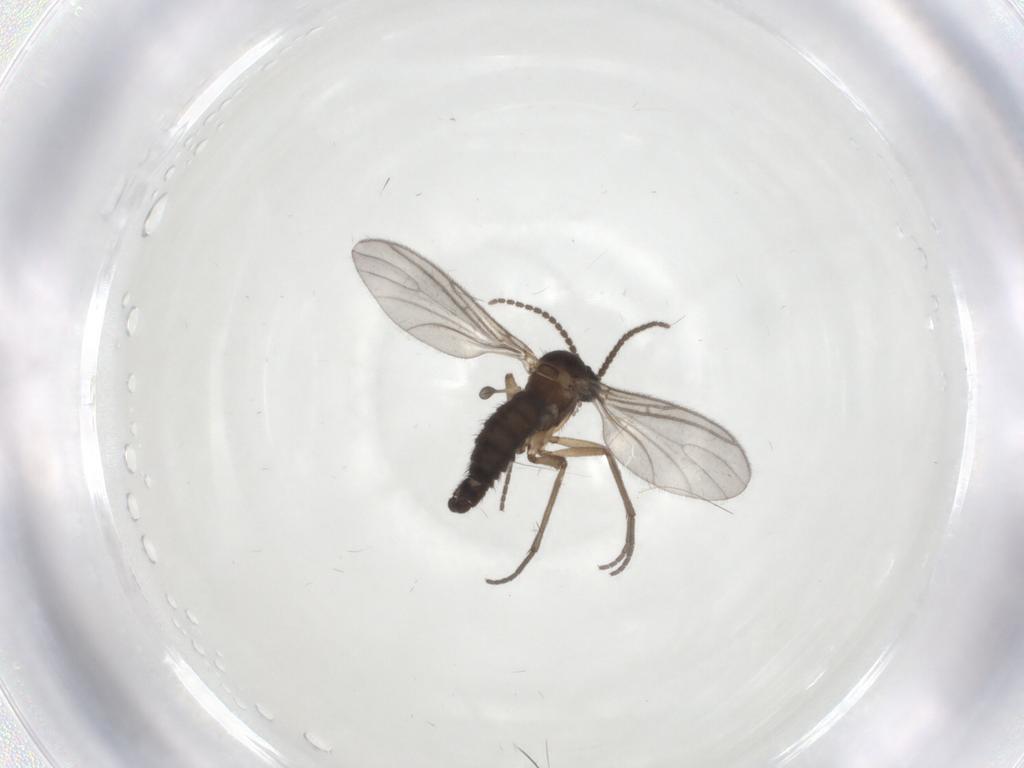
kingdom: Animalia
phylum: Arthropoda
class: Insecta
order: Diptera
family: Sciaridae
